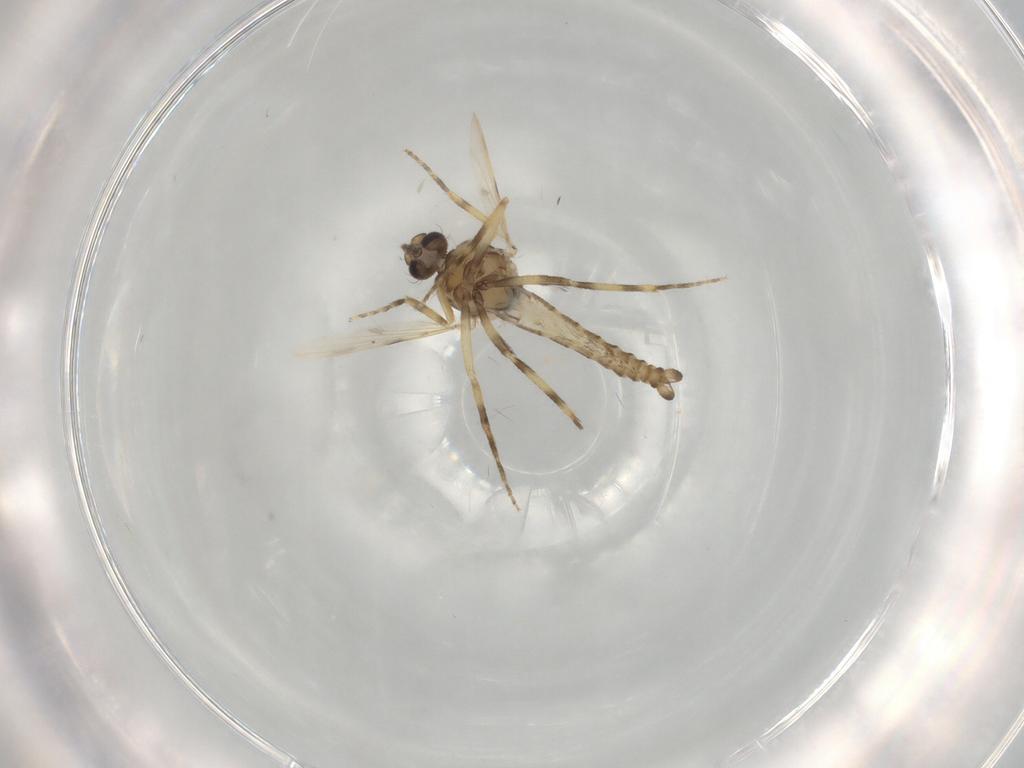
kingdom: Animalia
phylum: Arthropoda
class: Insecta
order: Diptera
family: Ceratopogonidae
